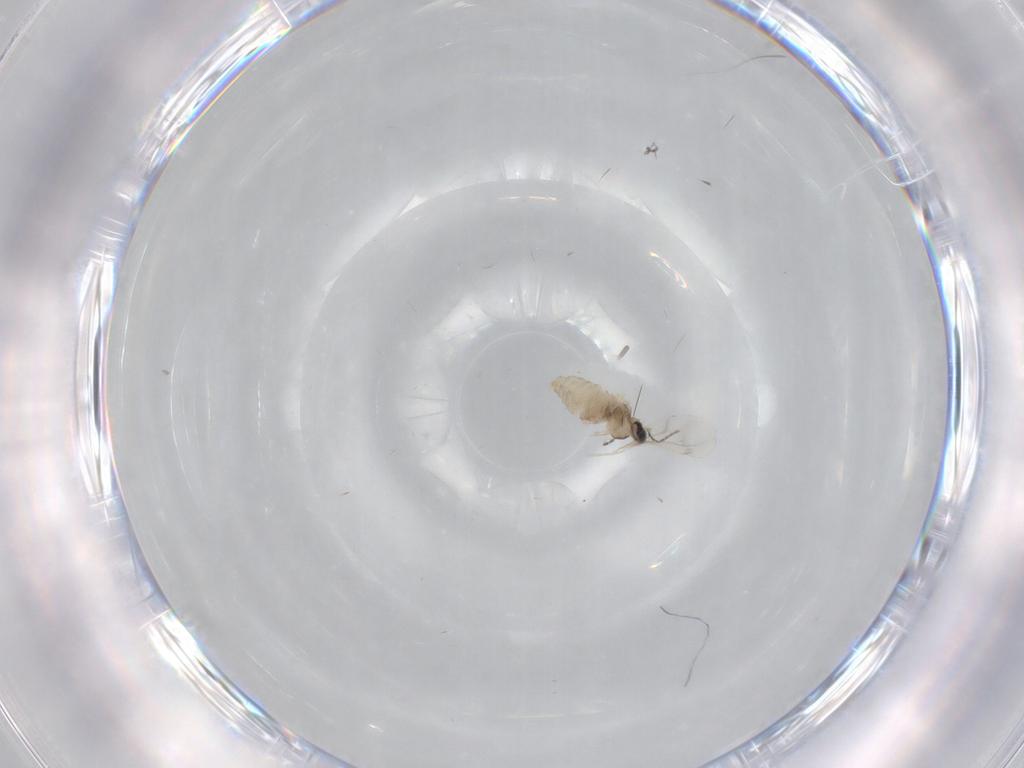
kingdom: Animalia
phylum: Arthropoda
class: Insecta
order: Diptera
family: Cecidomyiidae
